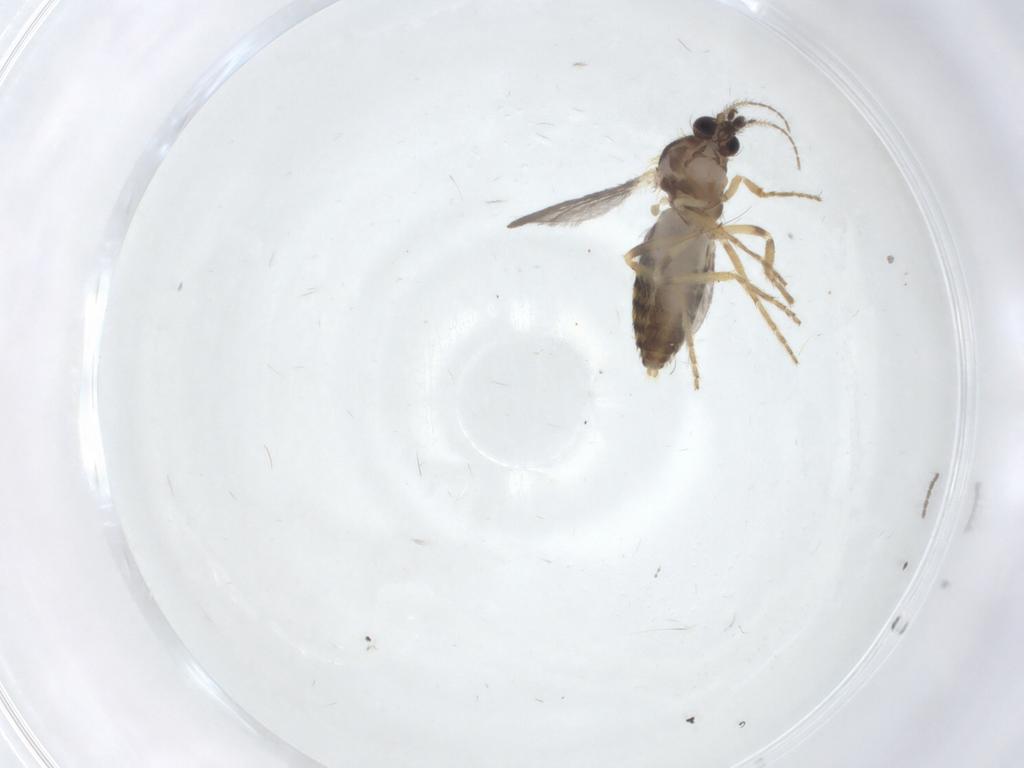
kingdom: Animalia
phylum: Arthropoda
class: Insecta
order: Diptera
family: Ceratopogonidae
